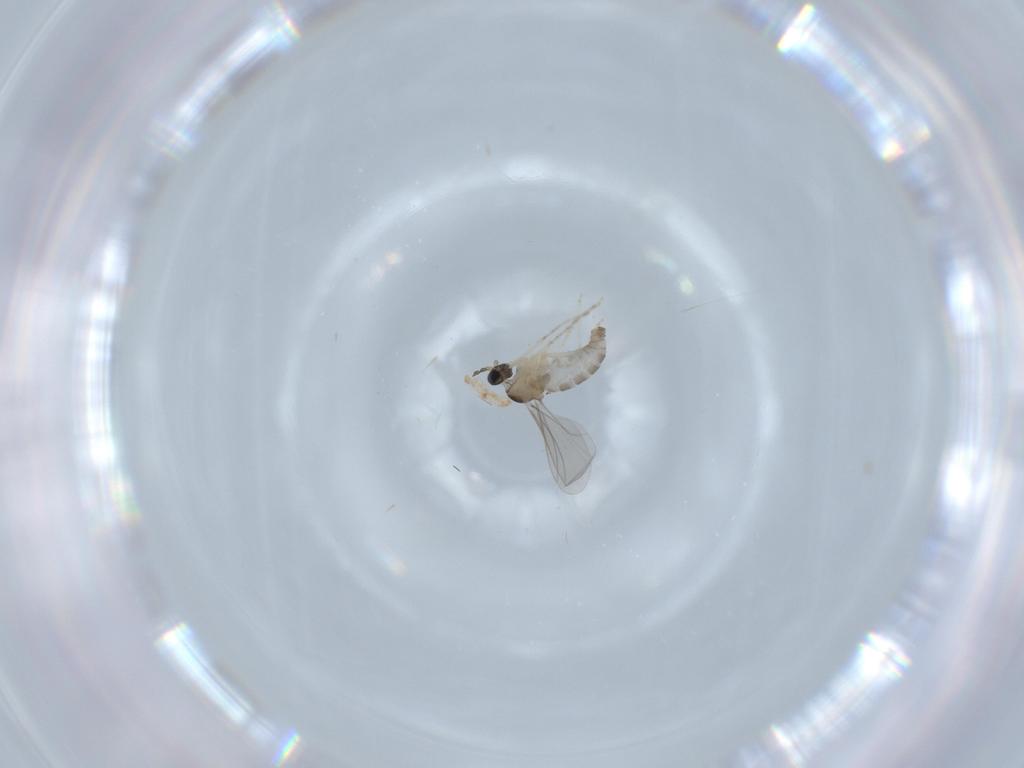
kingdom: Animalia
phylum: Arthropoda
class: Insecta
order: Diptera
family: Cecidomyiidae
